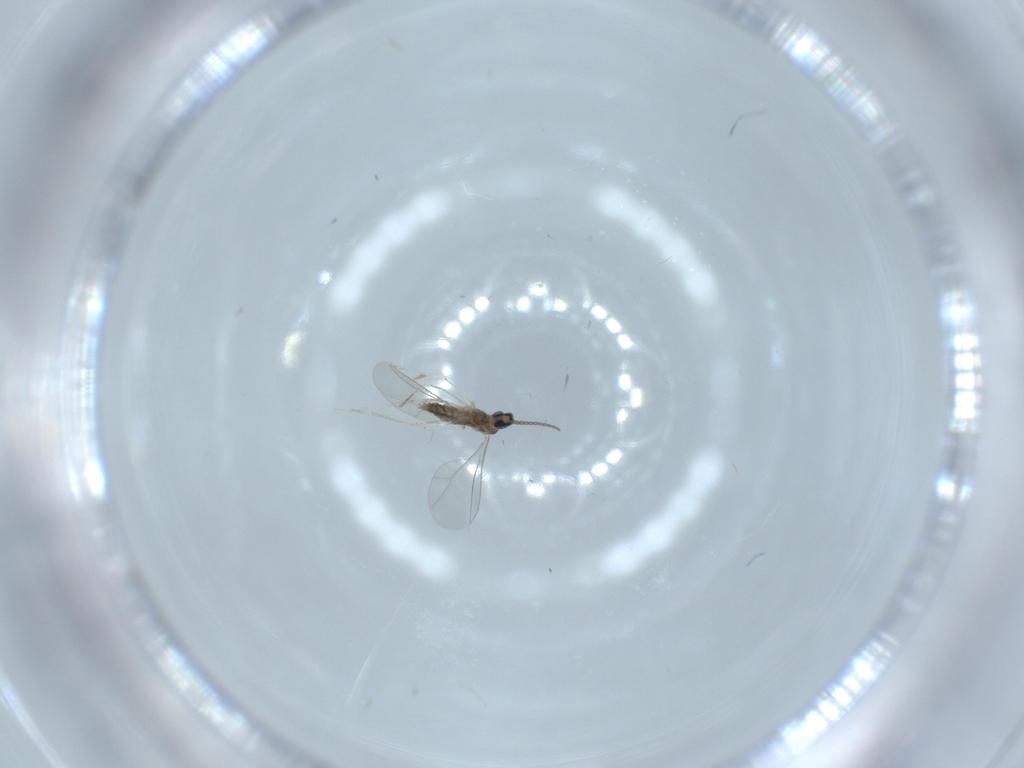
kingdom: Animalia
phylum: Arthropoda
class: Insecta
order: Diptera
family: Cecidomyiidae
